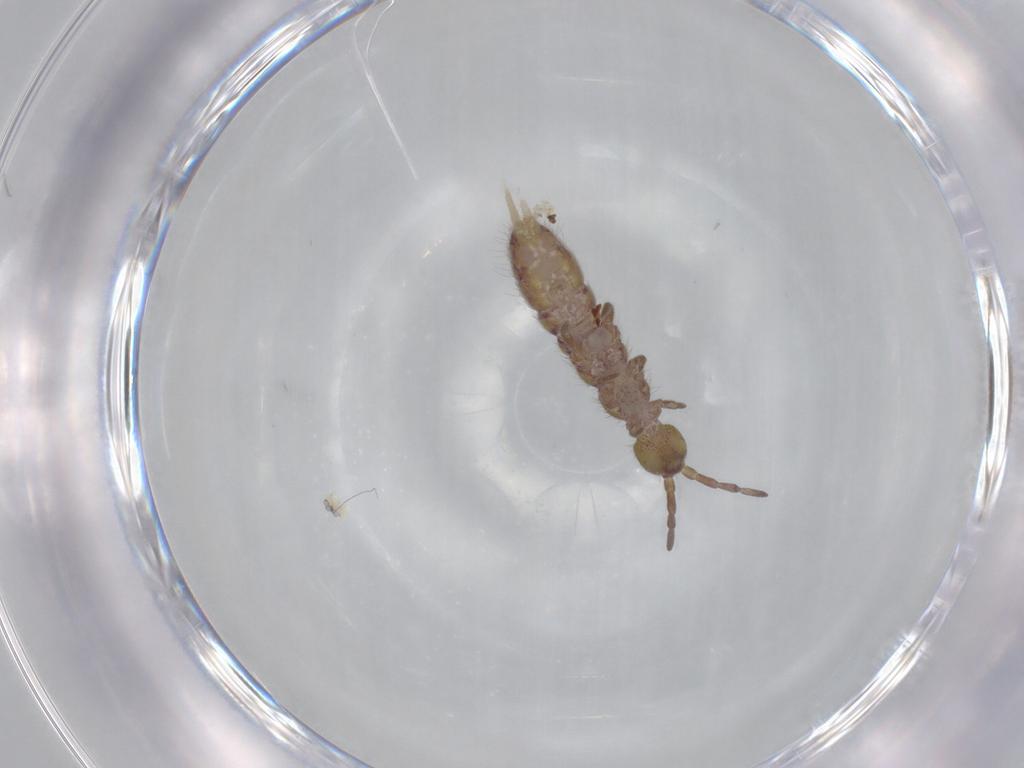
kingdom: Animalia
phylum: Arthropoda
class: Collembola
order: Entomobryomorpha
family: Isotomidae
